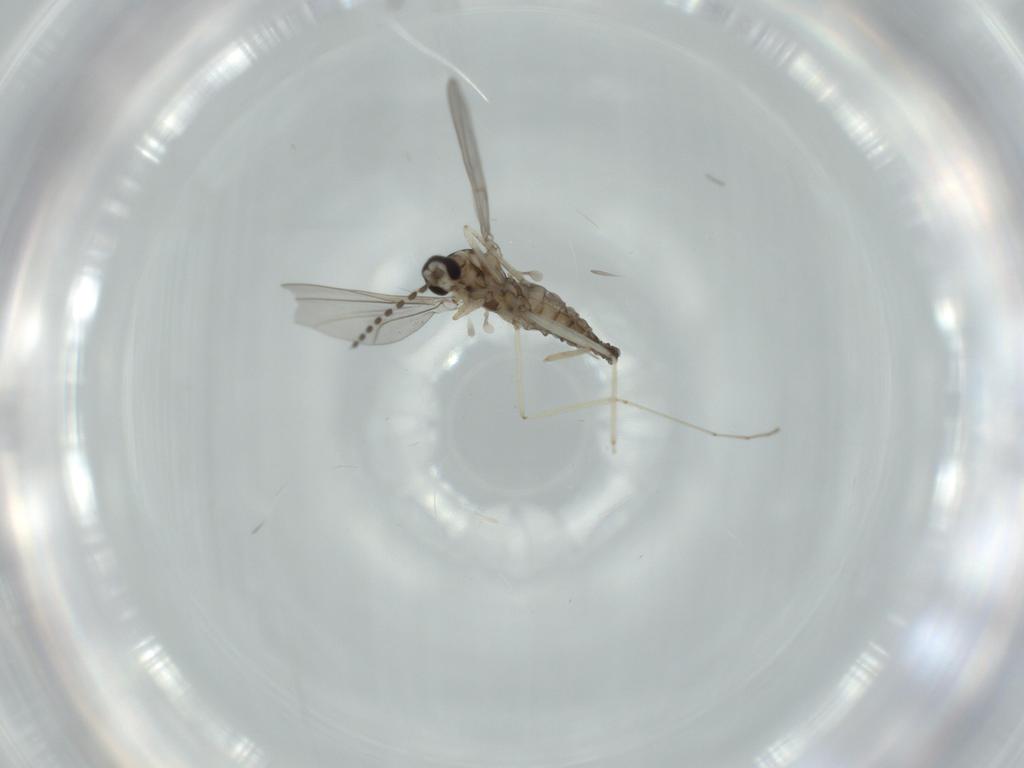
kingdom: Animalia
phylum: Arthropoda
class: Insecta
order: Diptera
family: Cecidomyiidae
